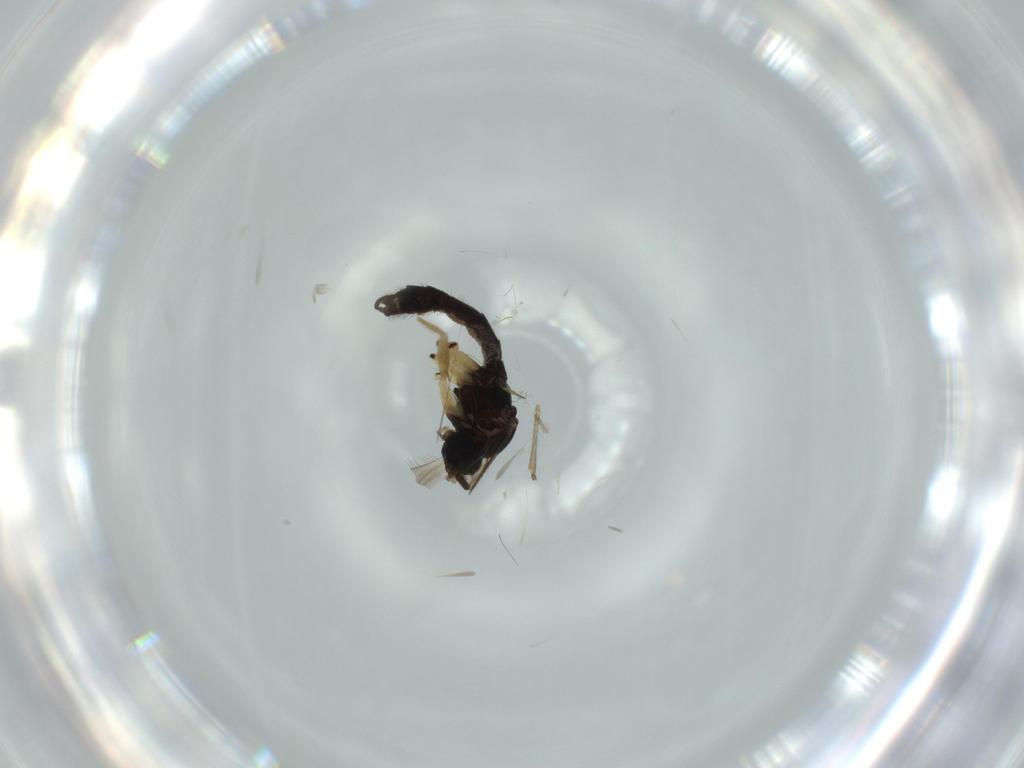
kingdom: Animalia
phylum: Arthropoda
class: Insecta
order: Diptera
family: Sciaridae
